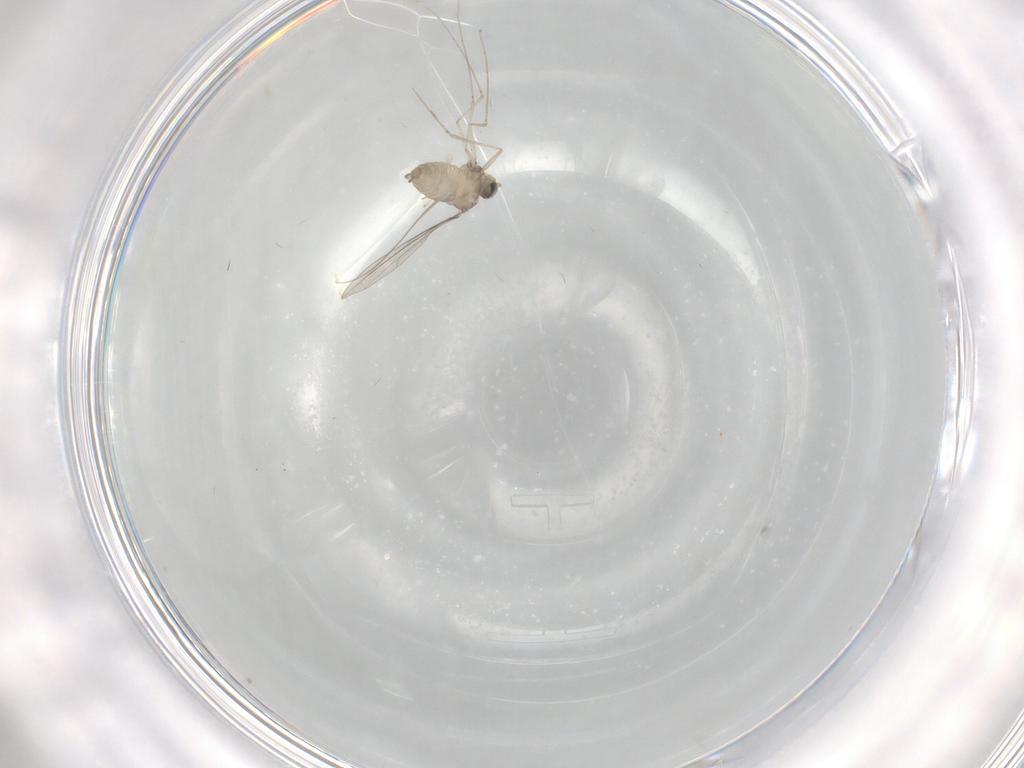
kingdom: Animalia
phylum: Arthropoda
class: Insecta
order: Diptera
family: Cecidomyiidae
